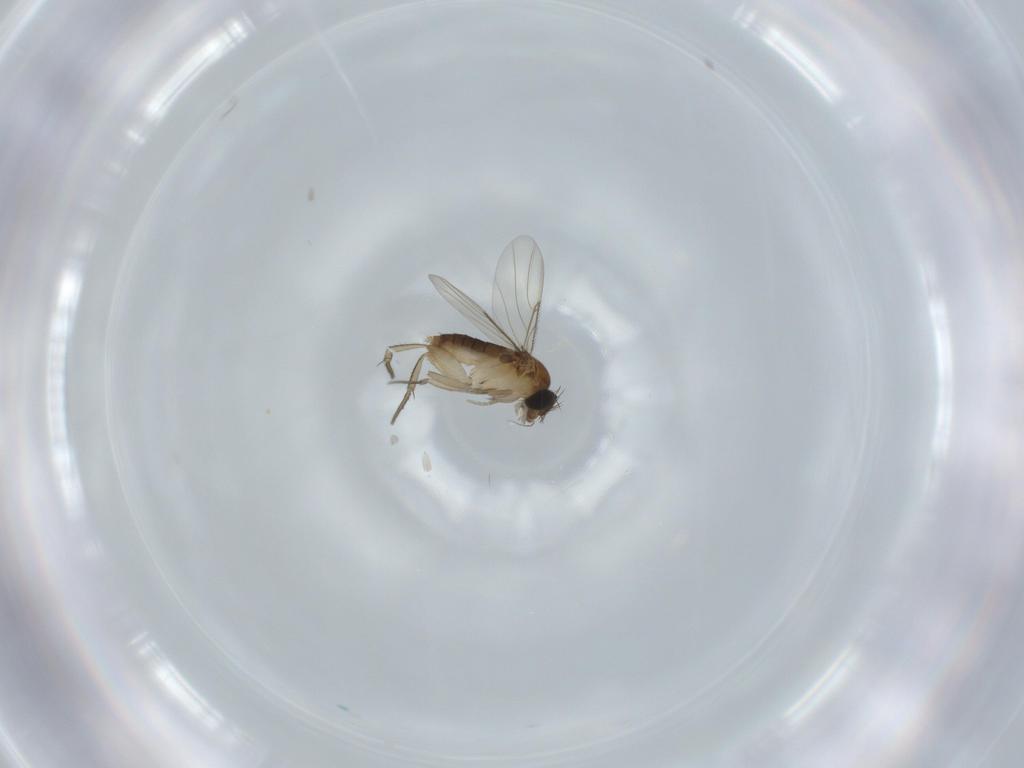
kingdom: Animalia
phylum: Arthropoda
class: Insecta
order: Diptera
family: Phoridae
